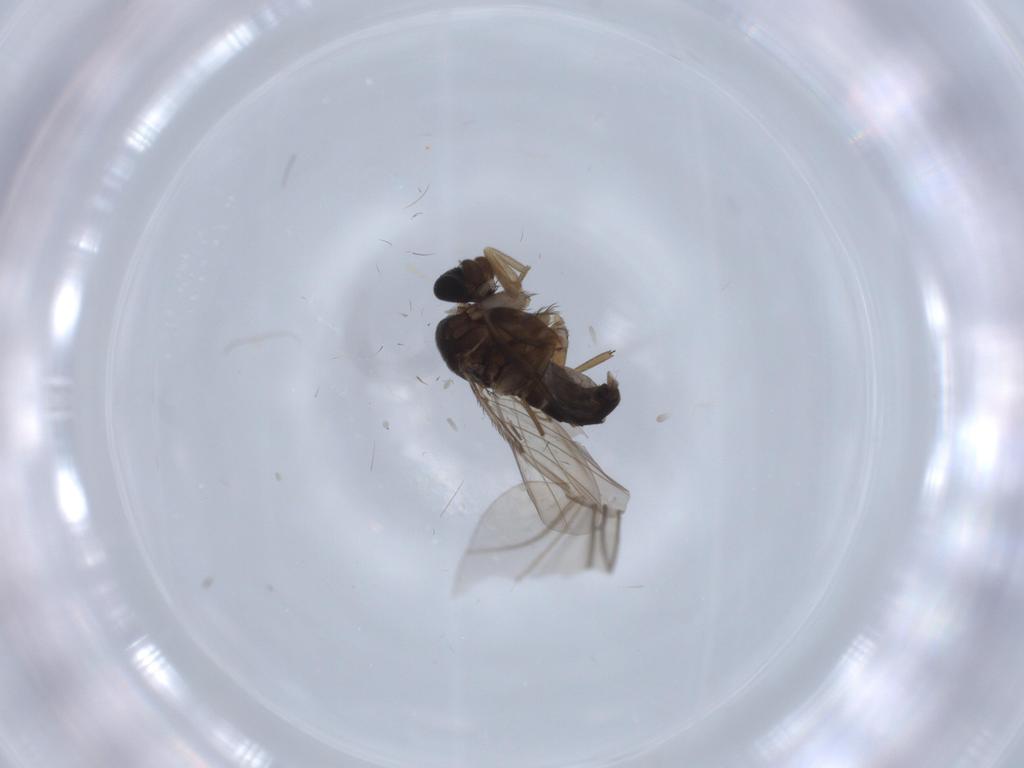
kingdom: Animalia
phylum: Arthropoda
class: Insecta
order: Diptera
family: Phoridae
